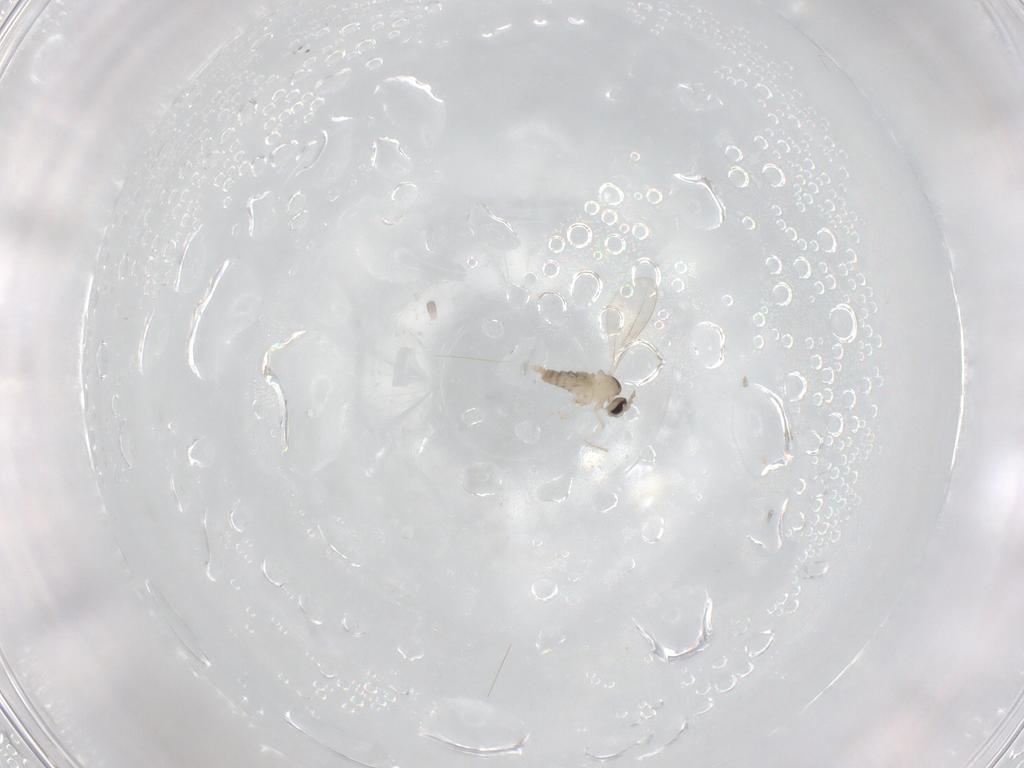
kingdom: Animalia
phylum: Arthropoda
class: Insecta
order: Diptera
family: Cecidomyiidae
